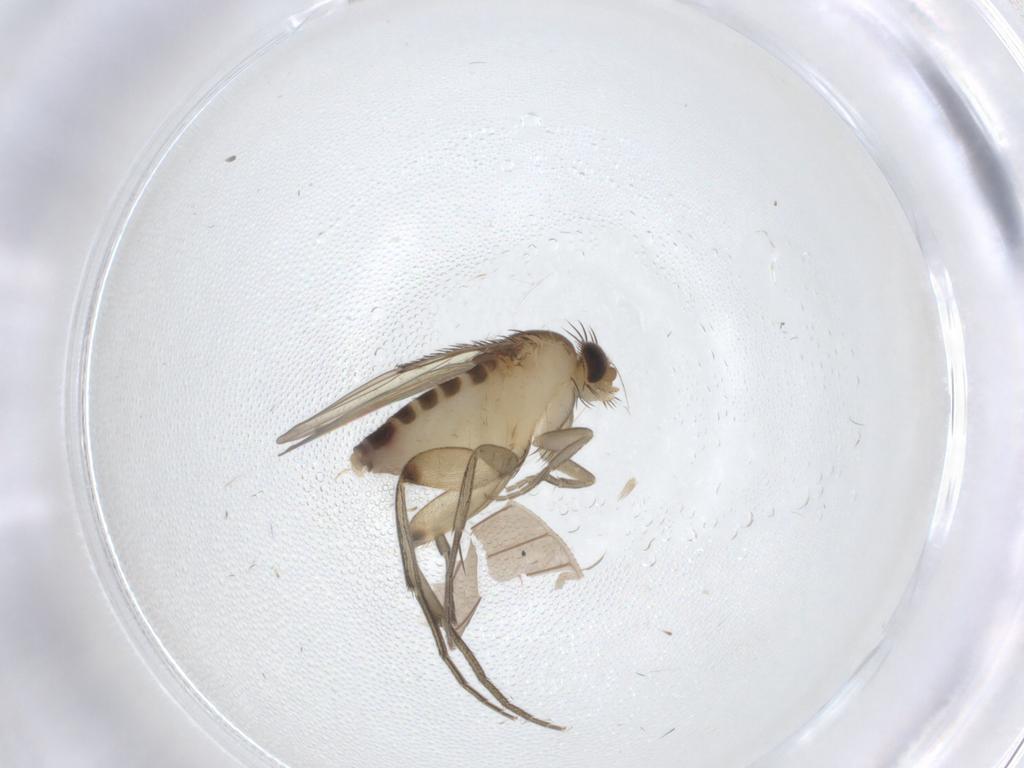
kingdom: Animalia
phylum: Arthropoda
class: Insecta
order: Diptera
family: Phoridae
